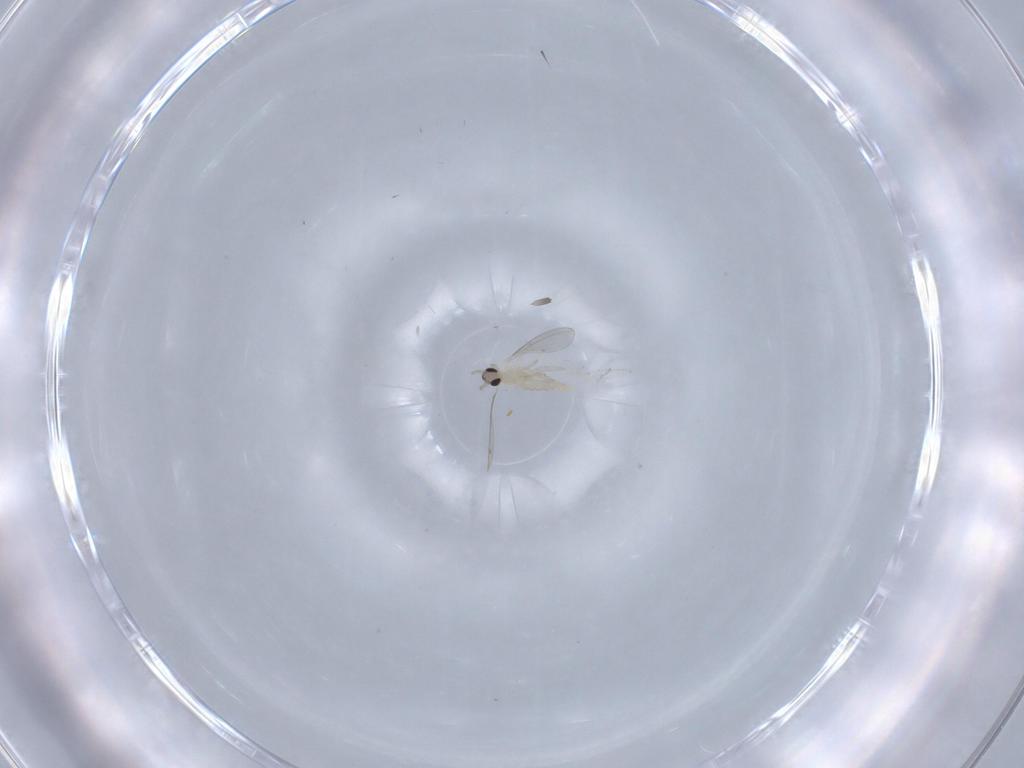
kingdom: Animalia
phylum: Arthropoda
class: Insecta
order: Diptera
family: Cecidomyiidae
